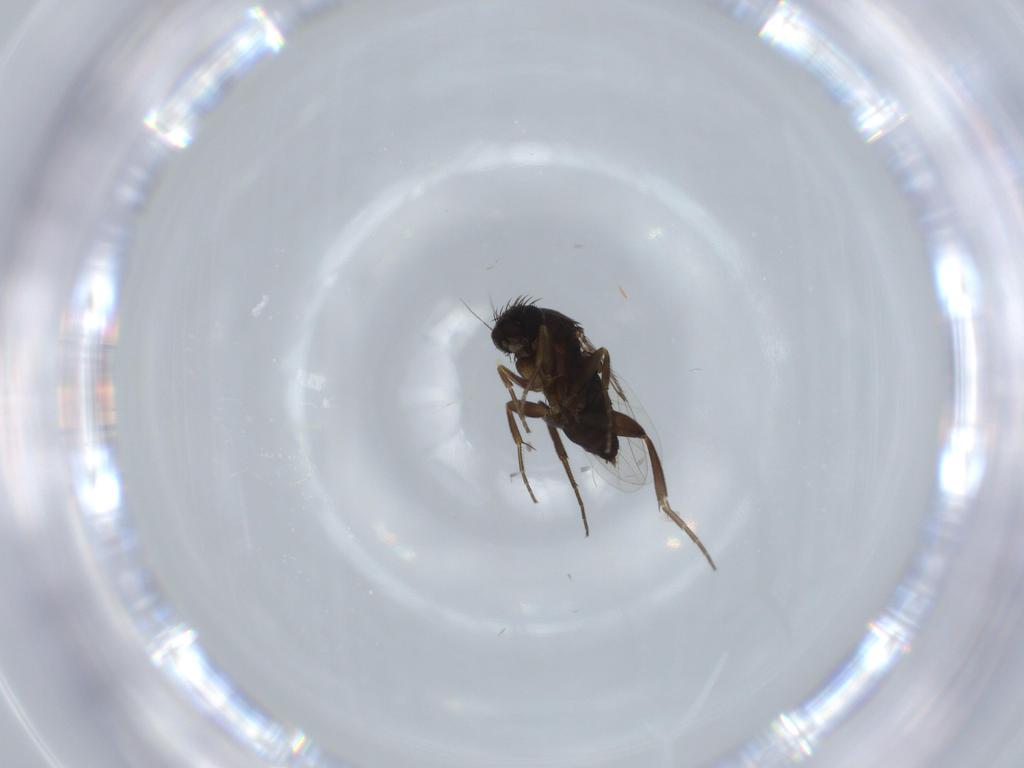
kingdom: Animalia
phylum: Arthropoda
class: Insecta
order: Diptera
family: Phoridae
